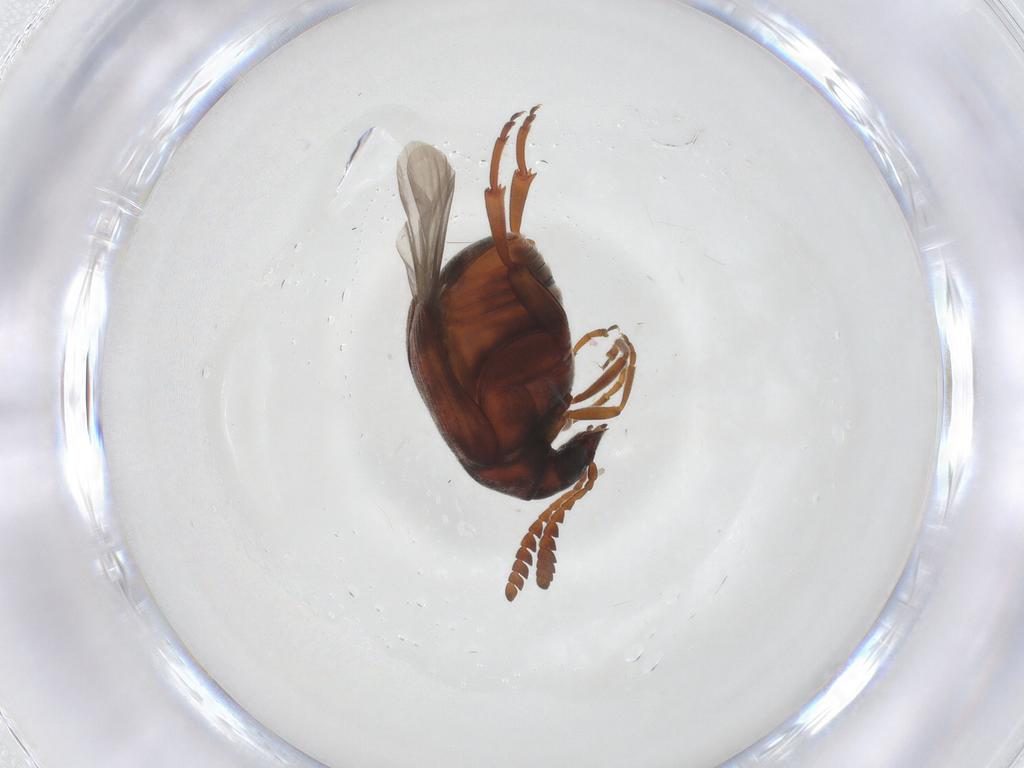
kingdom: Animalia
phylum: Arthropoda
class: Insecta
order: Coleoptera
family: Chrysomelidae
